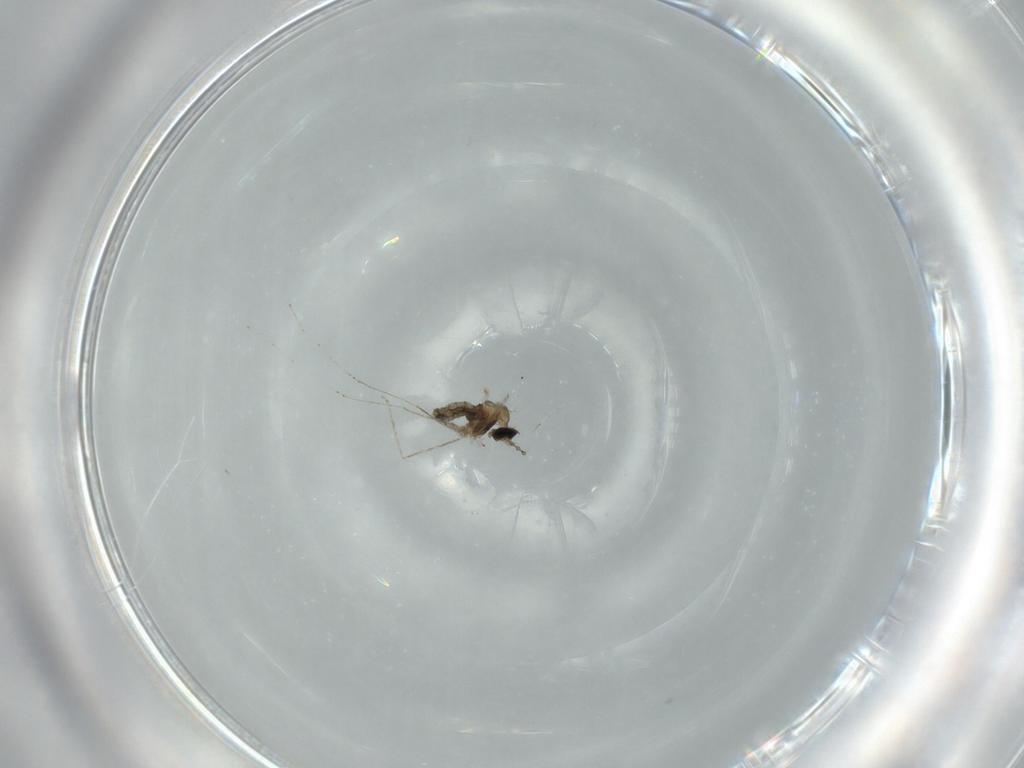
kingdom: Animalia
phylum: Arthropoda
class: Insecta
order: Diptera
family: Cecidomyiidae
